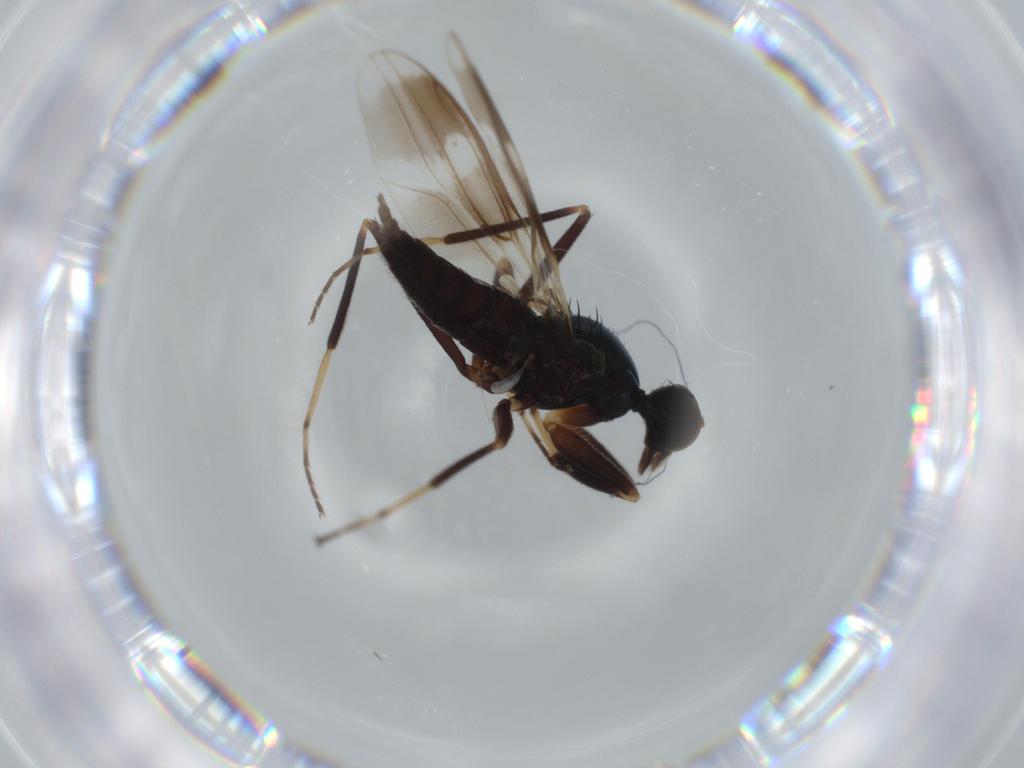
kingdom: Animalia
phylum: Arthropoda
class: Insecta
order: Diptera
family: Hybotidae
